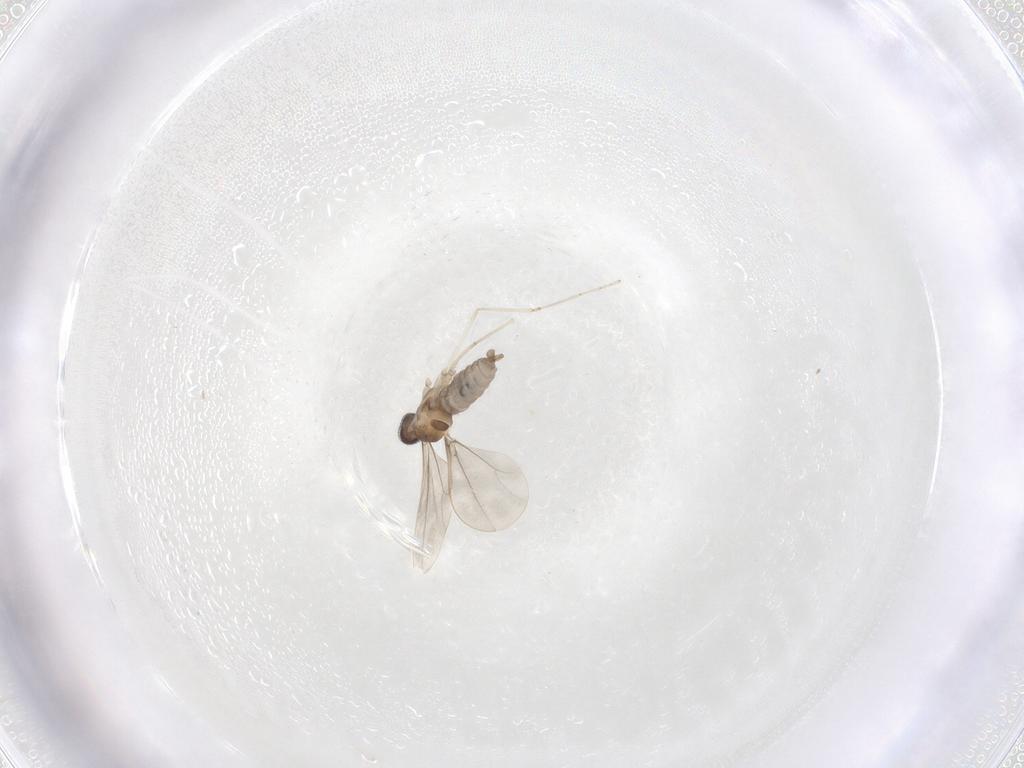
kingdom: Animalia
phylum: Arthropoda
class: Insecta
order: Diptera
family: Cecidomyiidae
